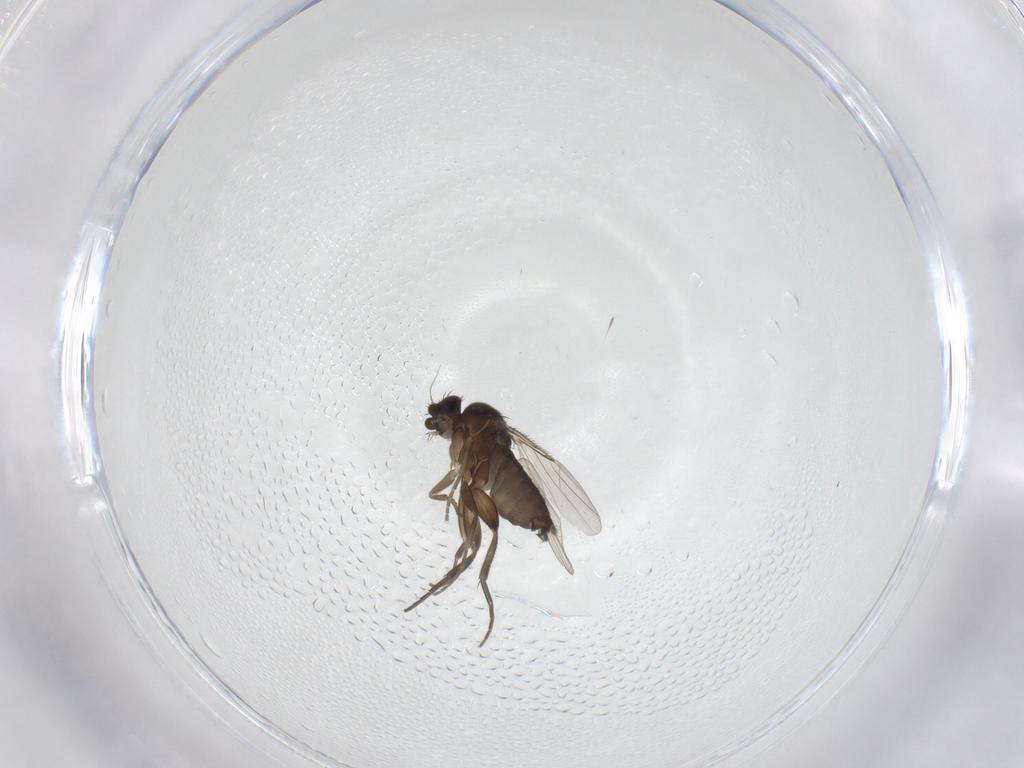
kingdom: Animalia
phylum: Arthropoda
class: Insecta
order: Diptera
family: Phoridae
